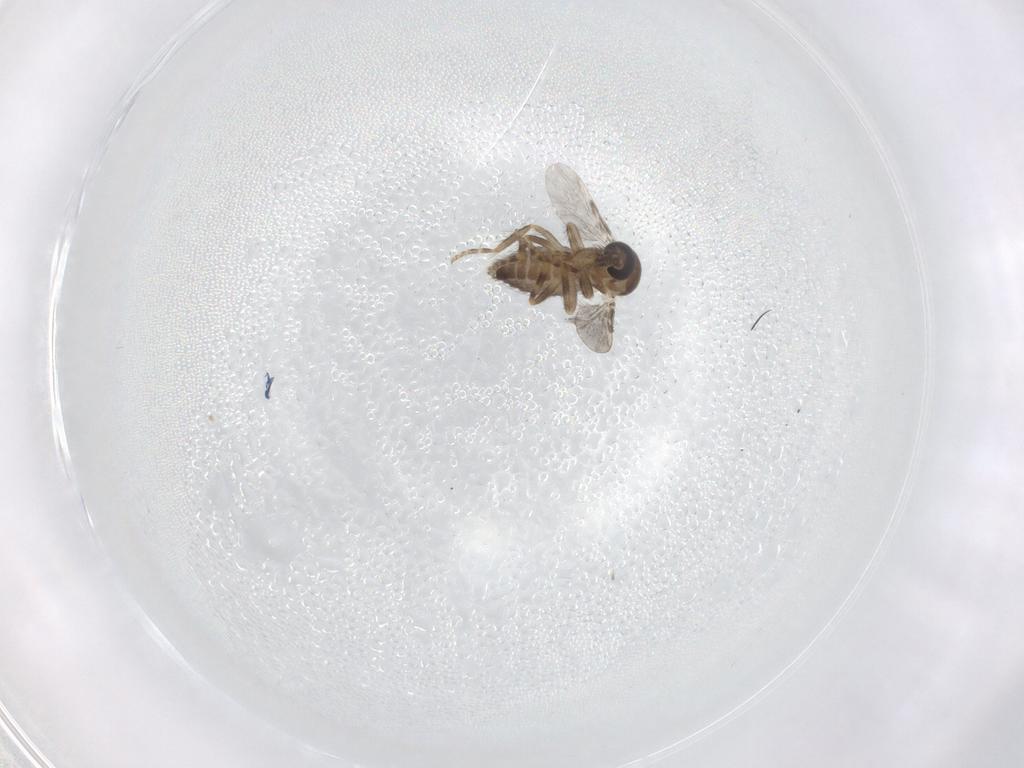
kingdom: Animalia
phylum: Arthropoda
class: Insecta
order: Diptera
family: Ceratopogonidae
